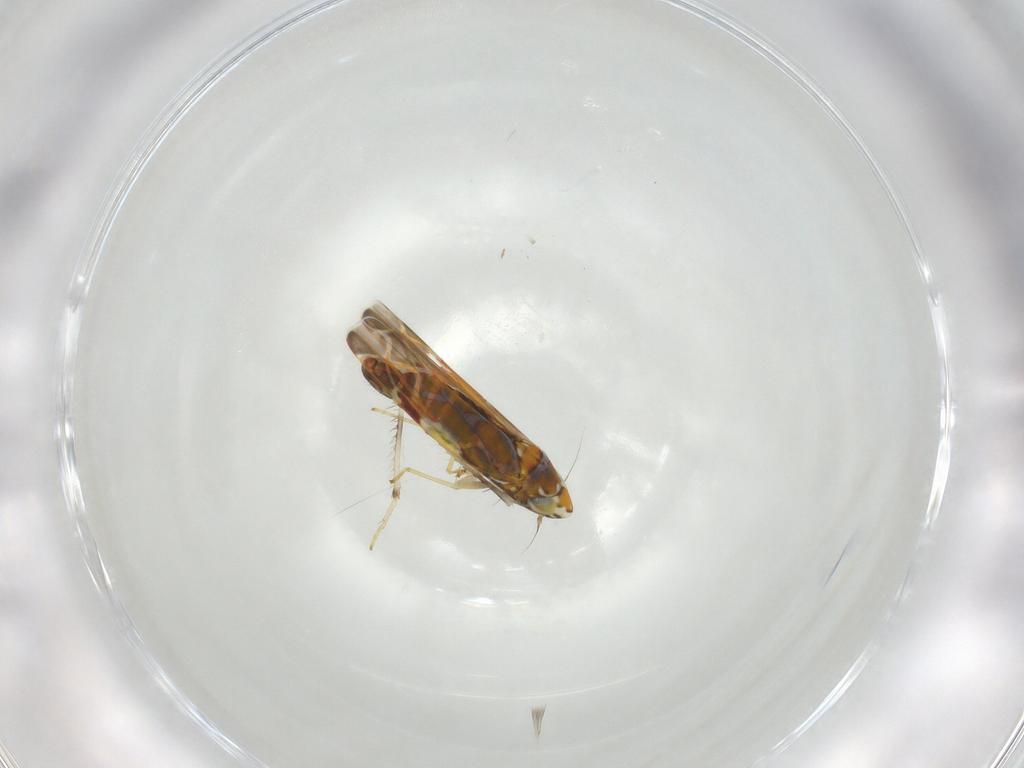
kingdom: Animalia
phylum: Arthropoda
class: Insecta
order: Hemiptera
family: Cicadellidae
